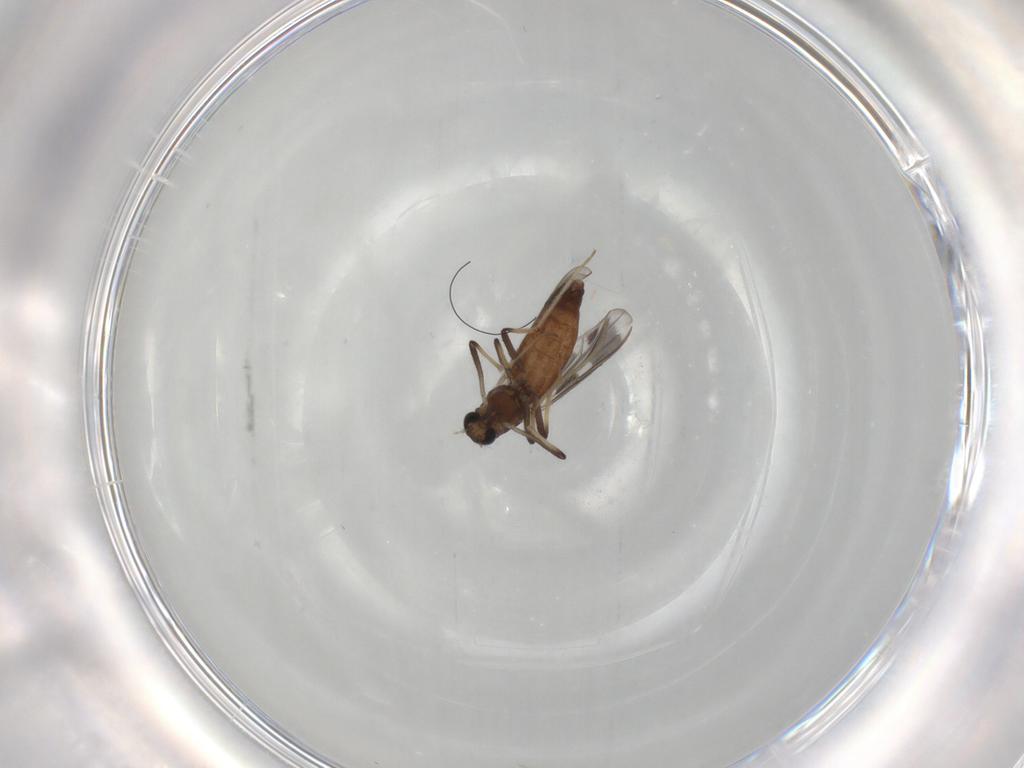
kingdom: Animalia
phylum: Arthropoda
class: Insecta
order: Diptera
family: Chironomidae
